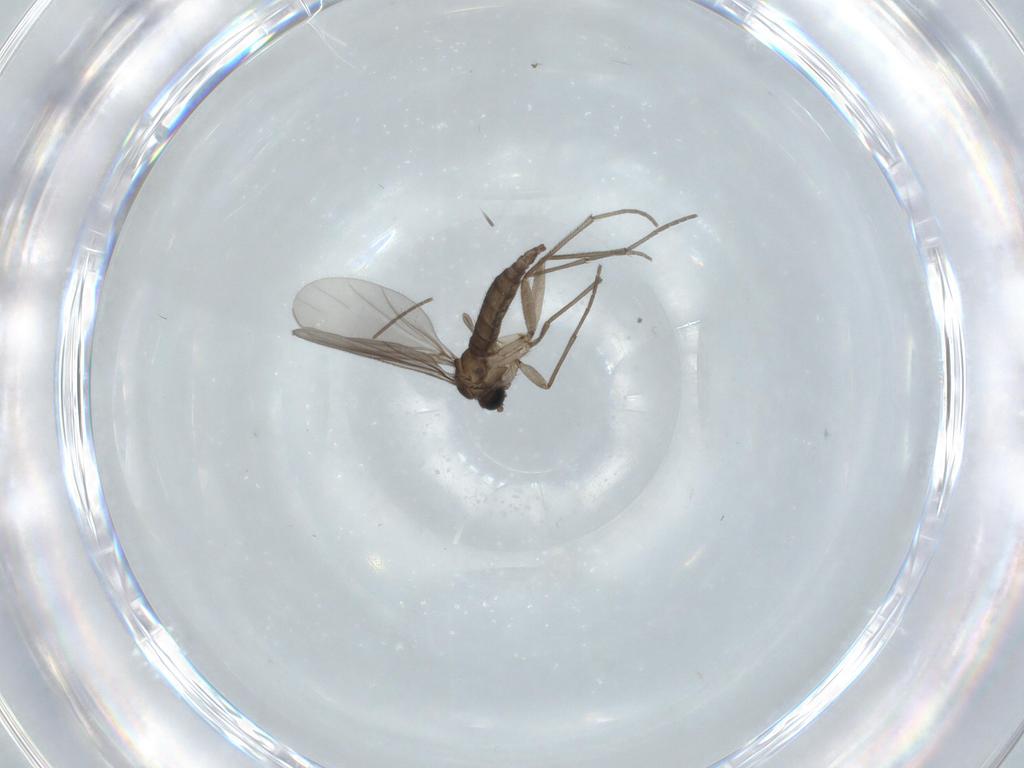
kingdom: Animalia
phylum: Arthropoda
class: Insecta
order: Diptera
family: Sciaridae
